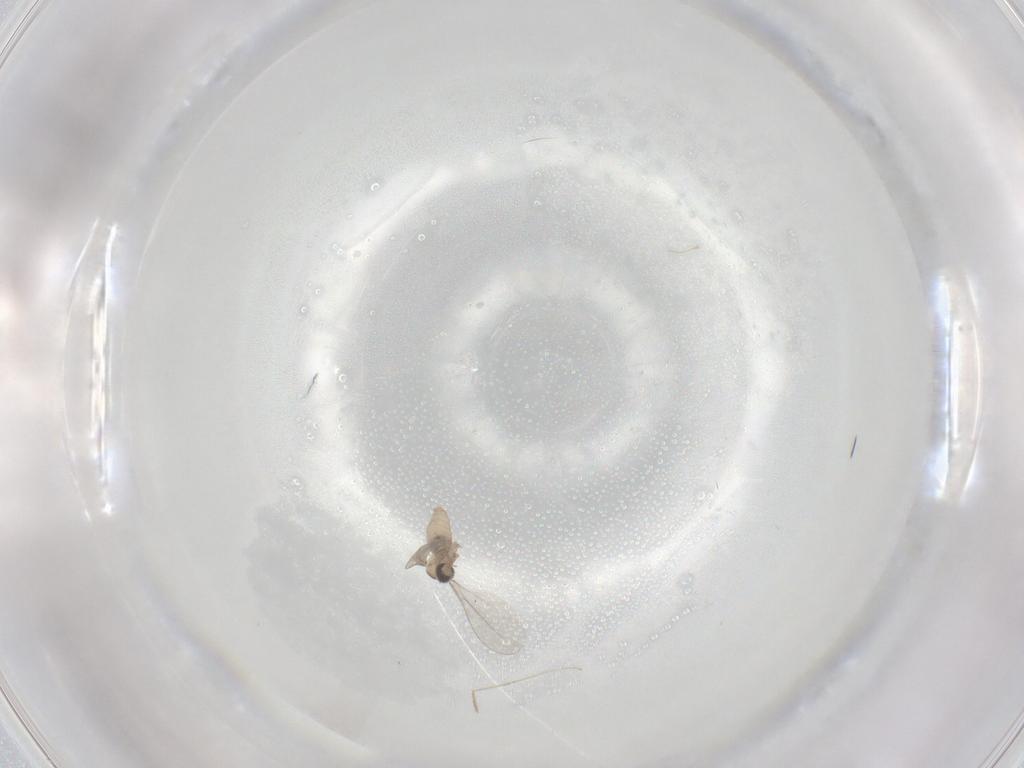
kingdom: Animalia
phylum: Arthropoda
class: Insecta
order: Diptera
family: Cecidomyiidae
